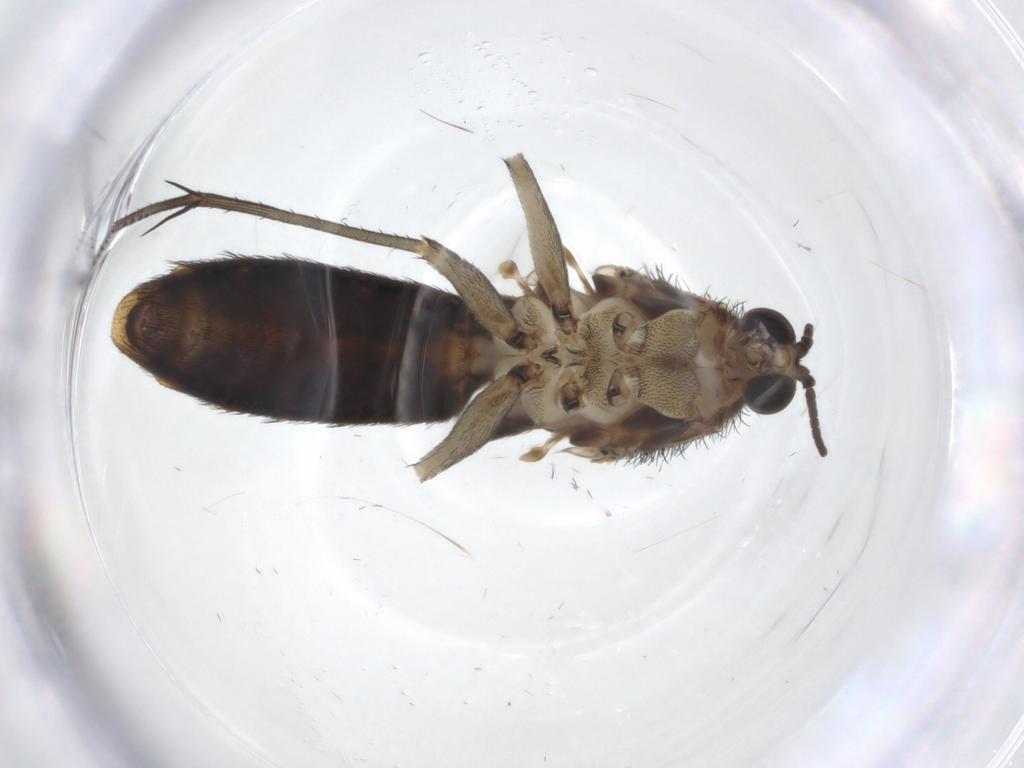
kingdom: Animalia
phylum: Arthropoda
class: Insecta
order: Diptera
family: Keroplatidae
